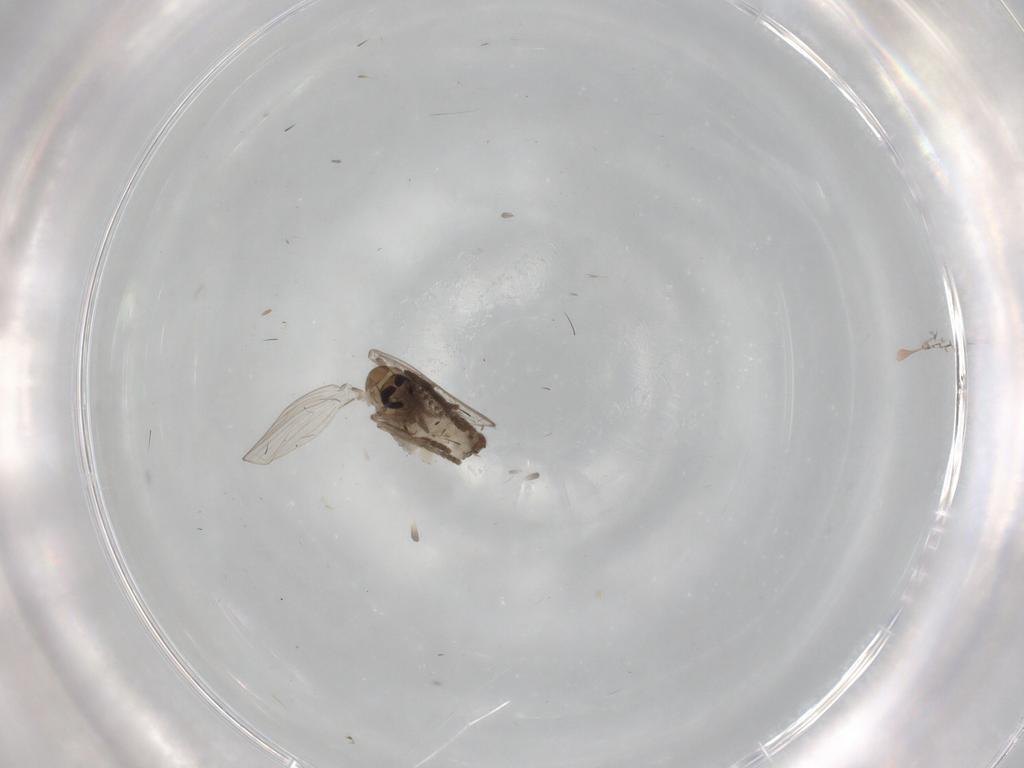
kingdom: Animalia
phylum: Arthropoda
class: Insecta
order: Diptera
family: Psychodidae
